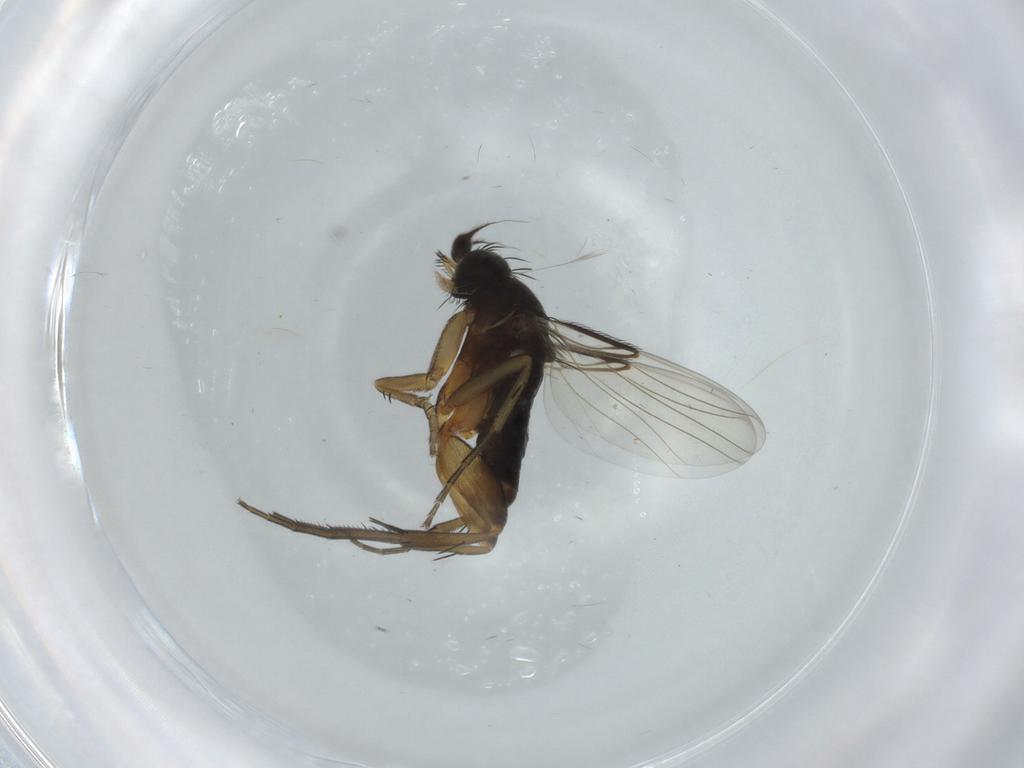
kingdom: Animalia
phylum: Arthropoda
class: Insecta
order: Diptera
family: Phoridae
